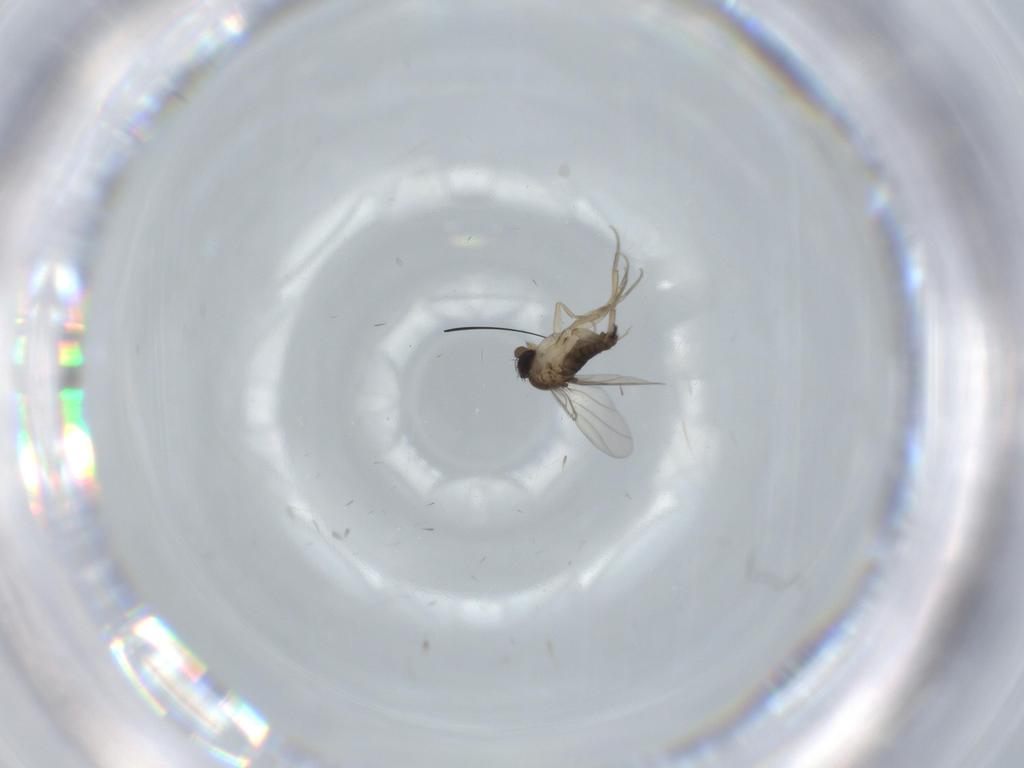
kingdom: Animalia
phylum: Arthropoda
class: Insecta
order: Diptera
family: Phoridae
